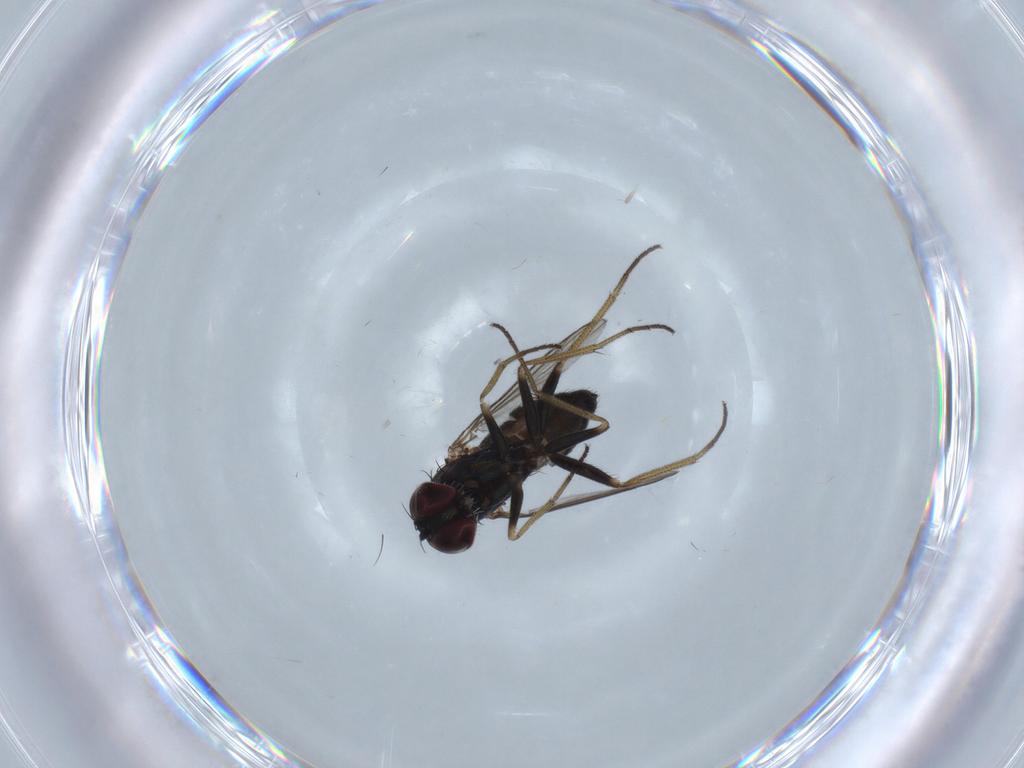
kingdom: Animalia
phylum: Arthropoda
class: Insecta
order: Diptera
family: Dolichopodidae
